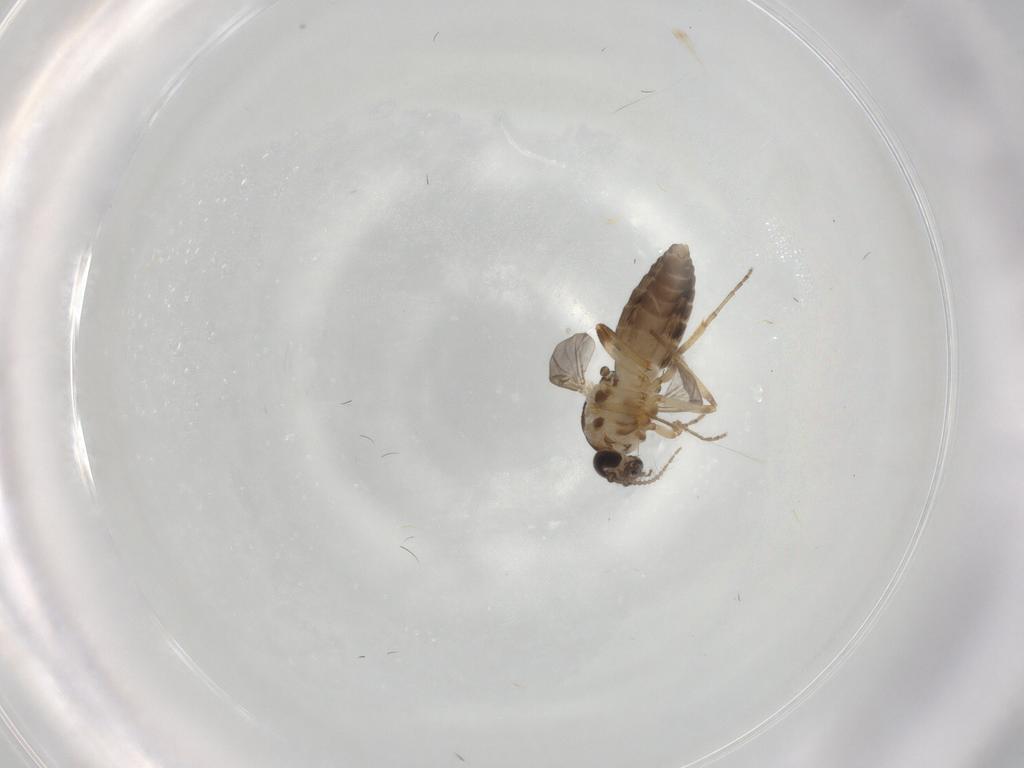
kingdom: Animalia
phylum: Arthropoda
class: Insecta
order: Diptera
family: Ceratopogonidae
